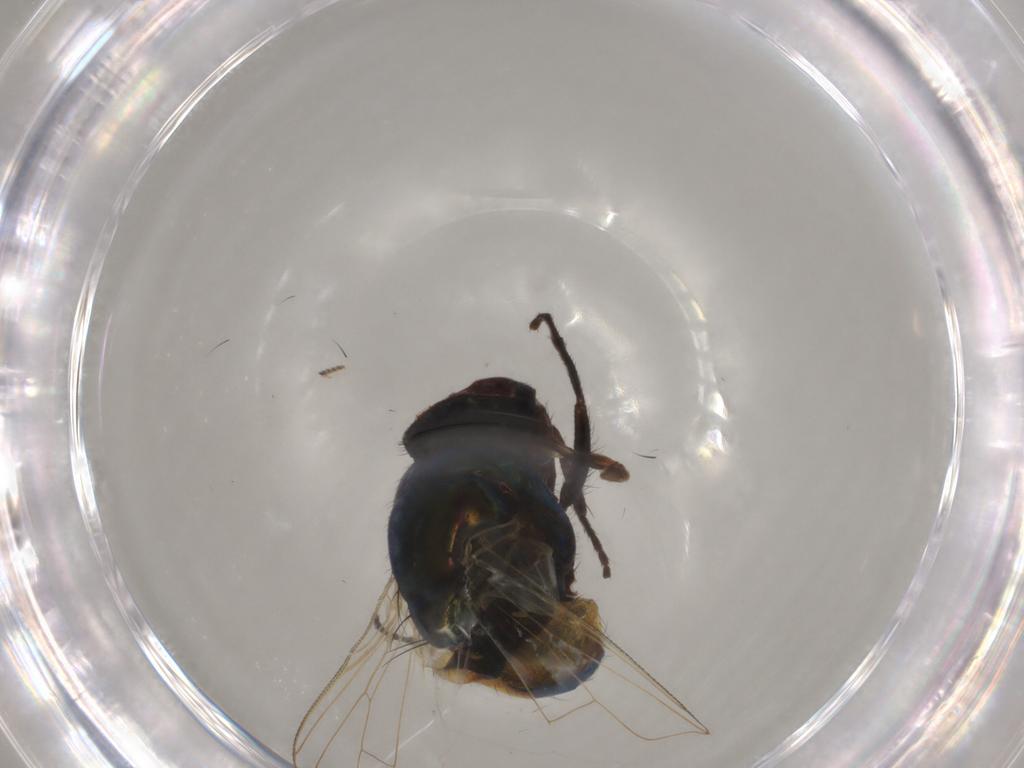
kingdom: Animalia
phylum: Arthropoda
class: Insecta
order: Diptera
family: Muscidae
